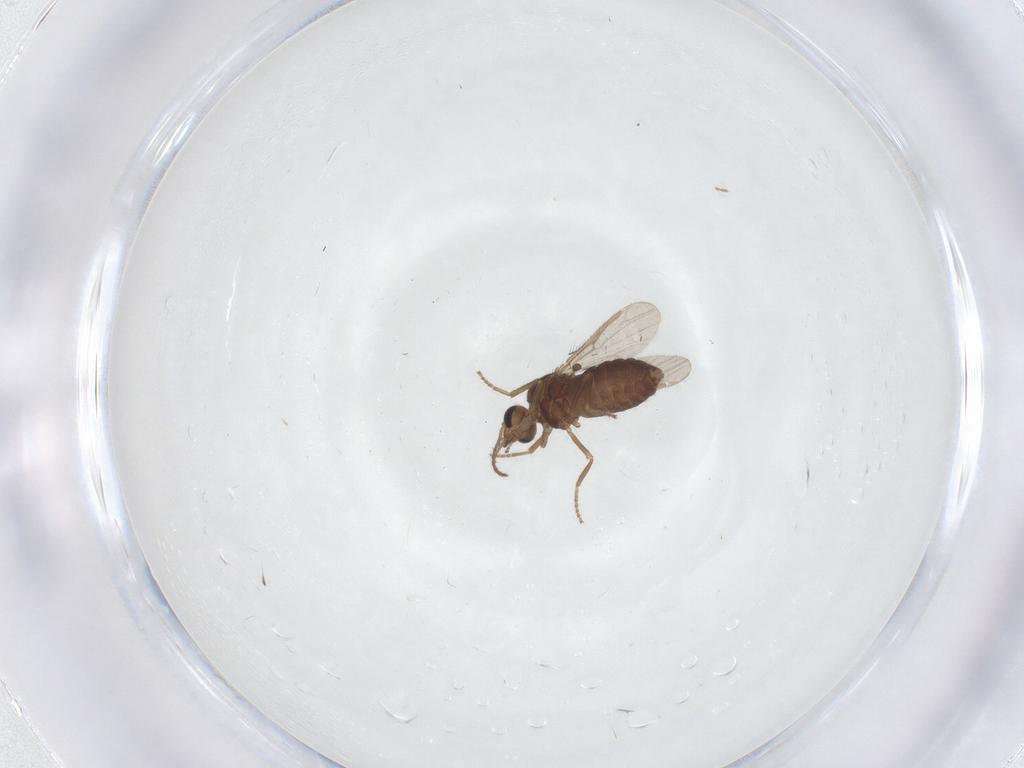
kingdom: Animalia
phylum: Arthropoda
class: Insecta
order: Diptera
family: Ceratopogonidae
